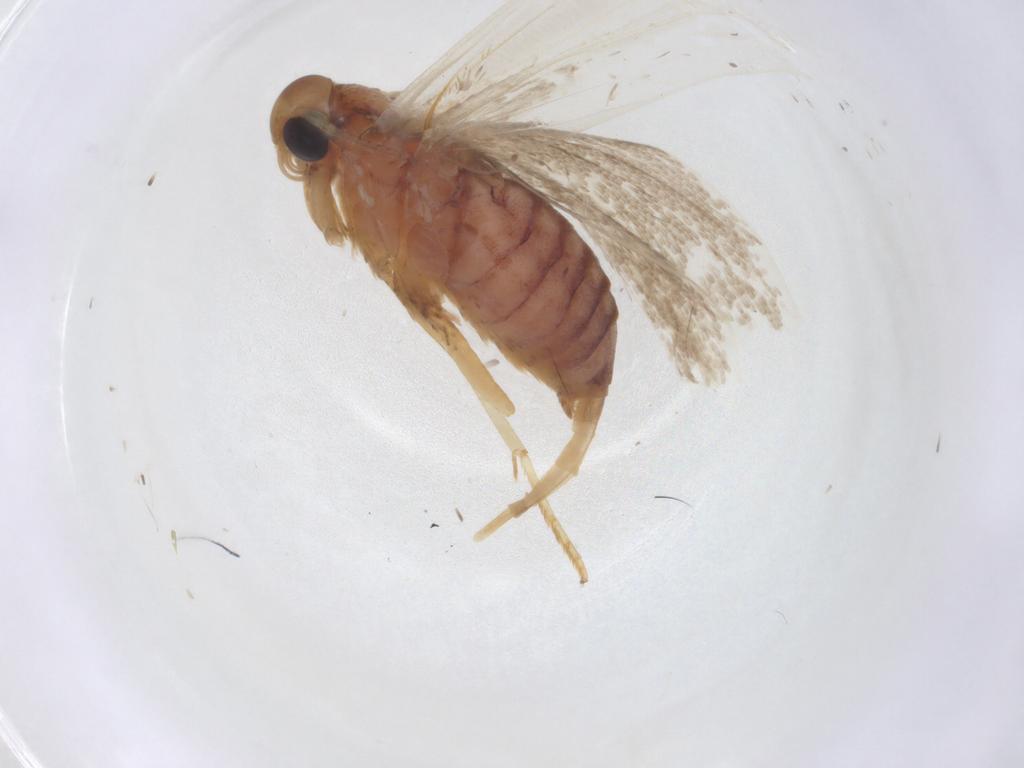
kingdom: Animalia
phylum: Arthropoda
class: Insecta
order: Lepidoptera
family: Blastobasidae
